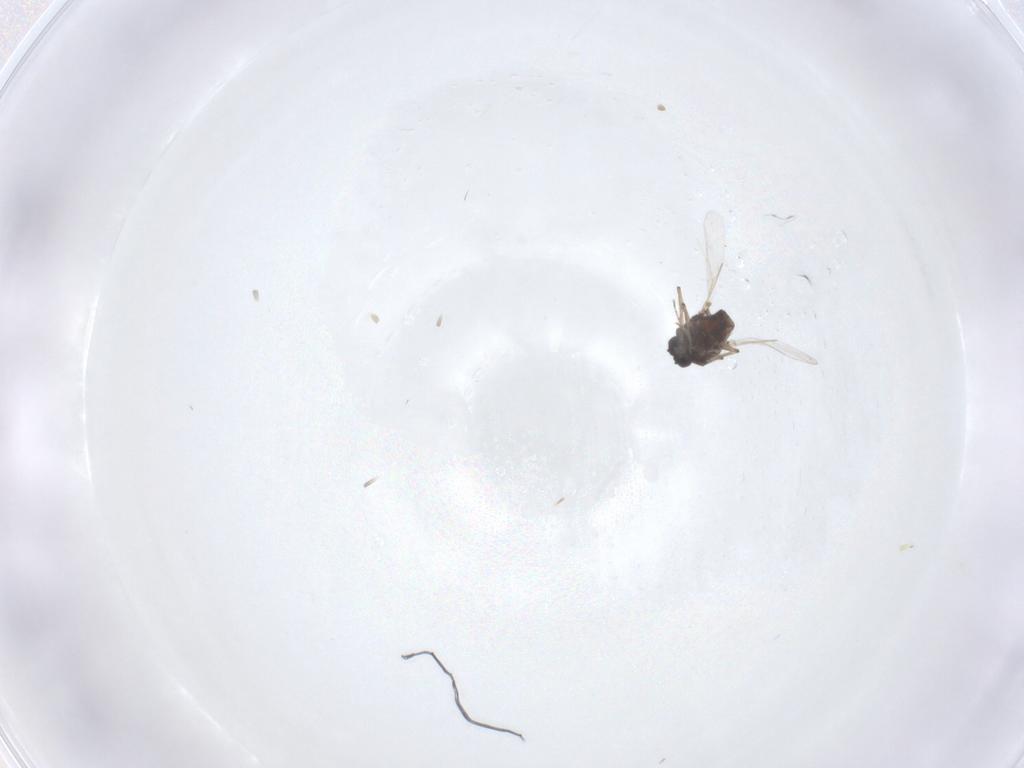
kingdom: Animalia
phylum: Arthropoda
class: Insecta
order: Diptera
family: Ceratopogonidae
